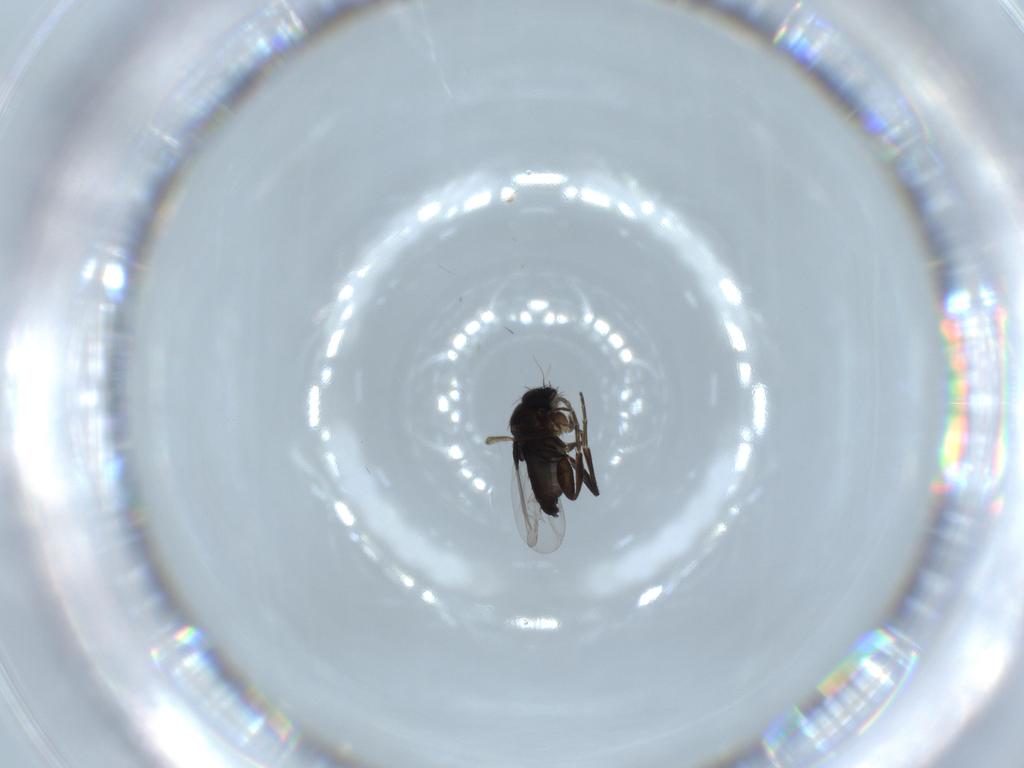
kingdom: Animalia
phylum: Arthropoda
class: Insecta
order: Diptera
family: Phoridae
